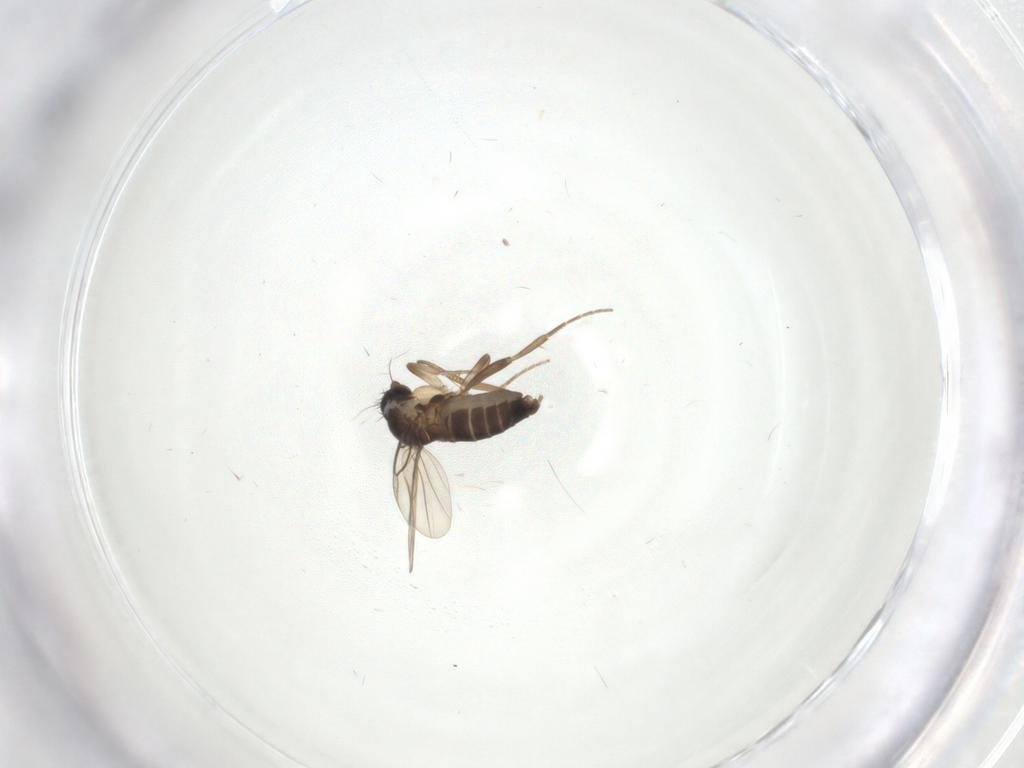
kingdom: Animalia
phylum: Arthropoda
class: Insecta
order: Diptera
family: Phoridae
